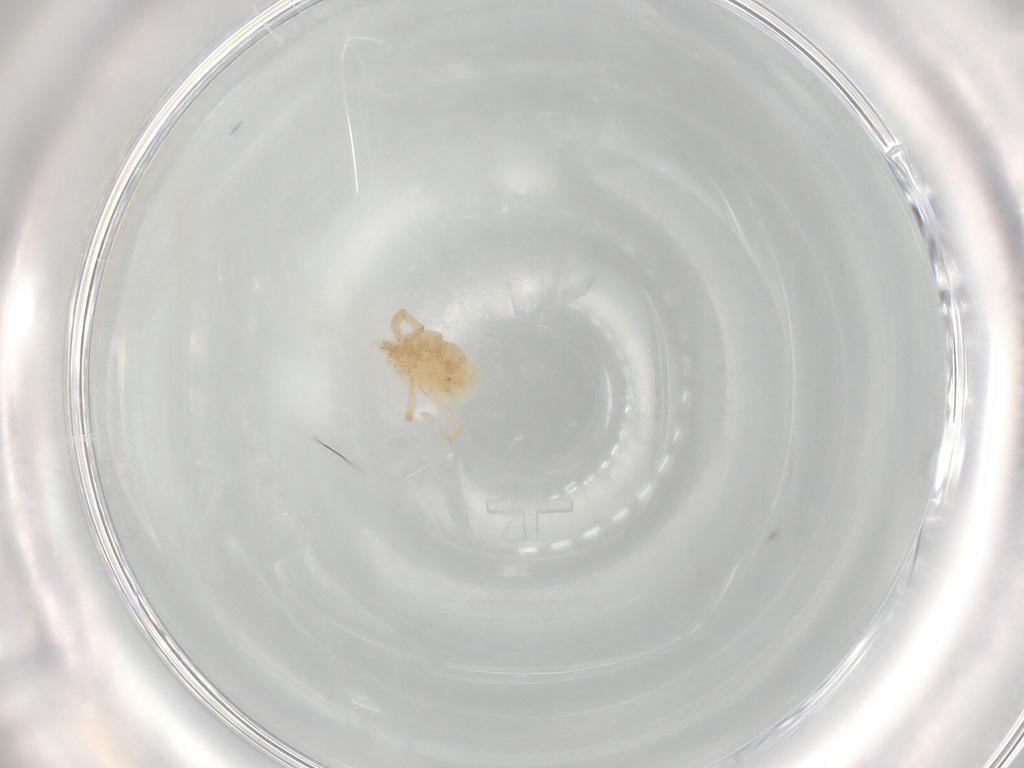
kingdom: Animalia
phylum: Arthropoda
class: Arachnida
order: Trombidiformes
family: Erythraeidae
